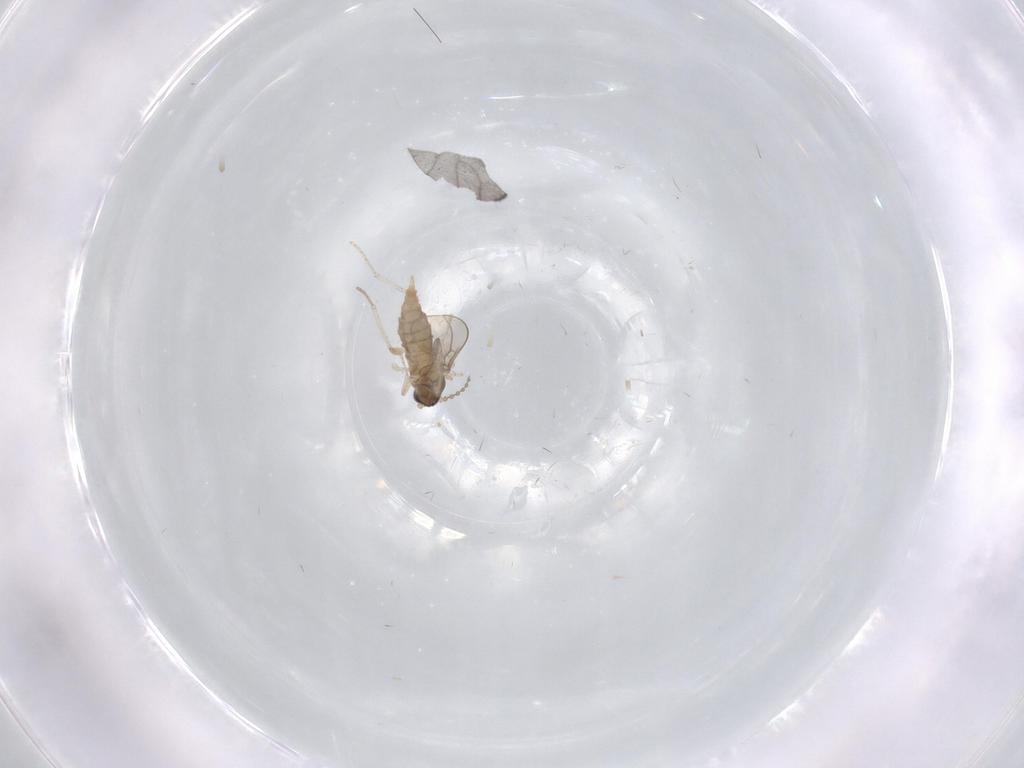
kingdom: Animalia
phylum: Arthropoda
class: Insecta
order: Diptera
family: Cecidomyiidae
